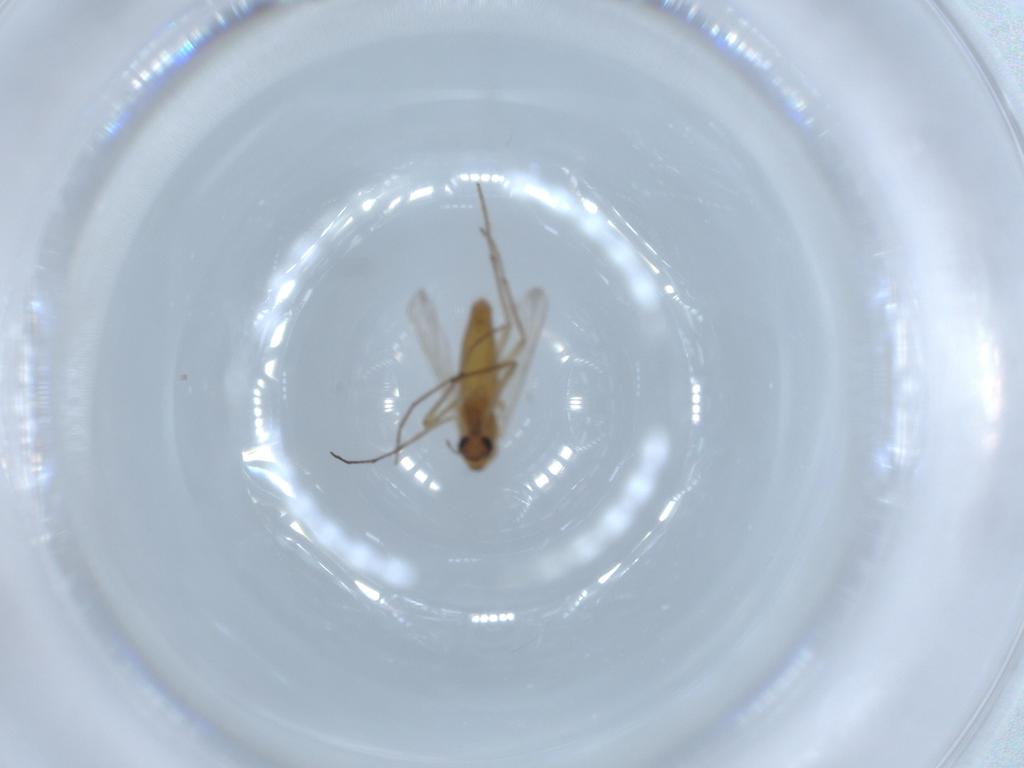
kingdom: Animalia
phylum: Arthropoda
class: Insecta
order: Diptera
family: Chironomidae
